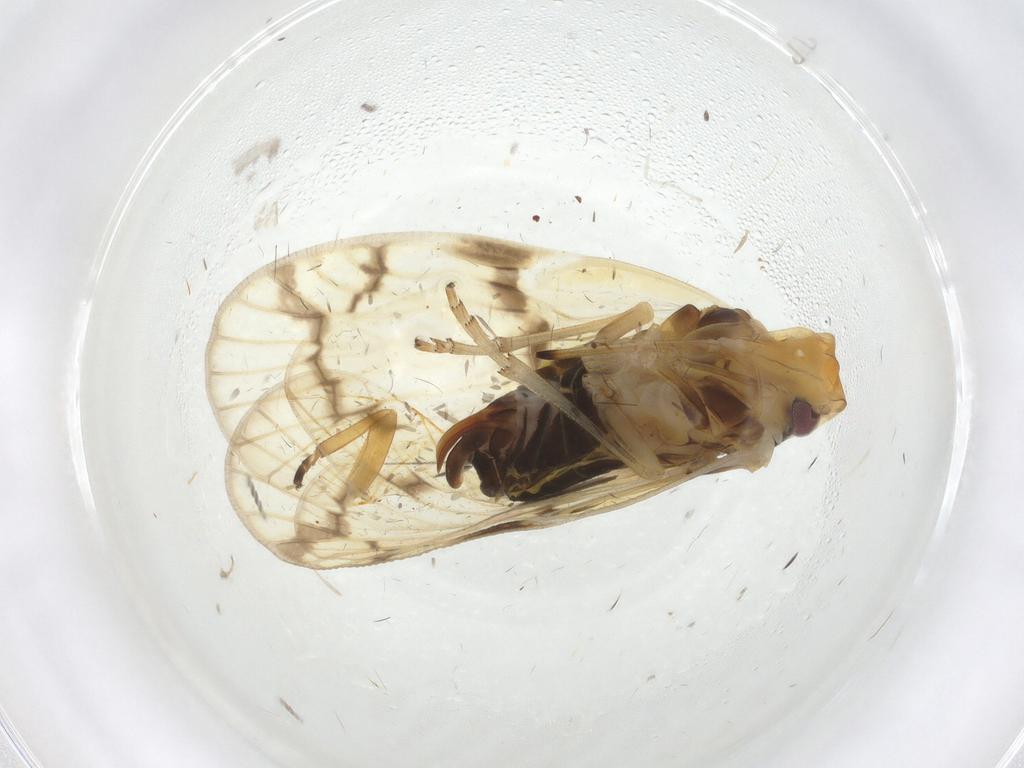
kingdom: Animalia
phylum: Arthropoda
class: Insecta
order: Hemiptera
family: Cixiidae
